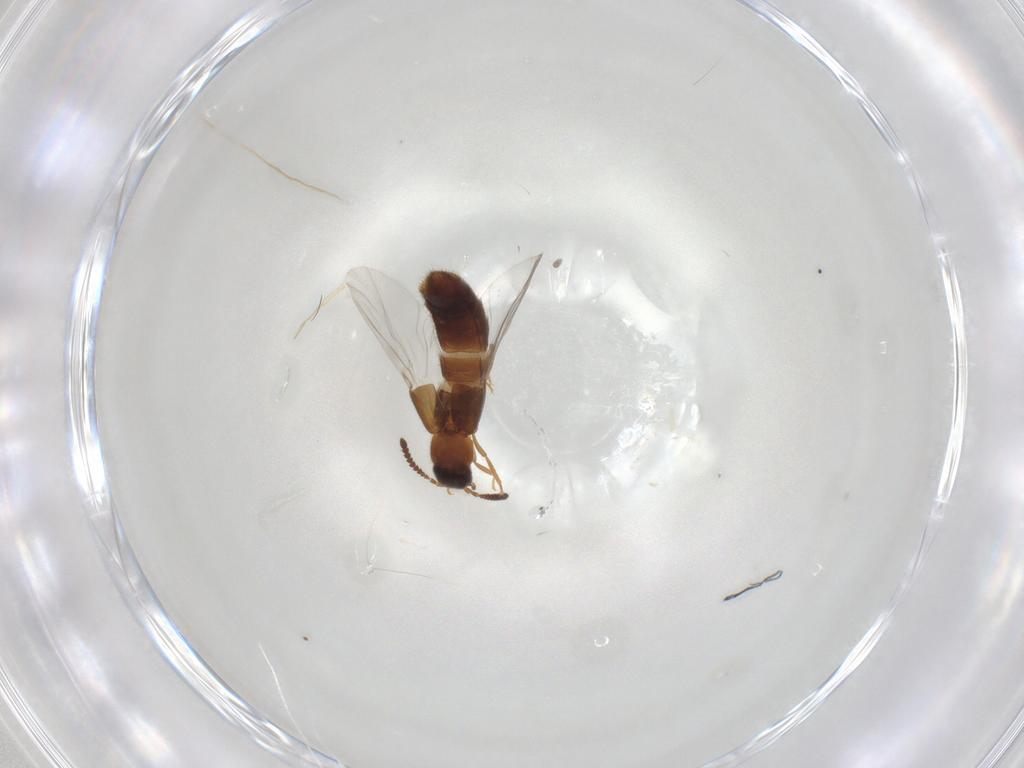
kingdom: Animalia
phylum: Arthropoda
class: Insecta
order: Coleoptera
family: Staphylinidae
